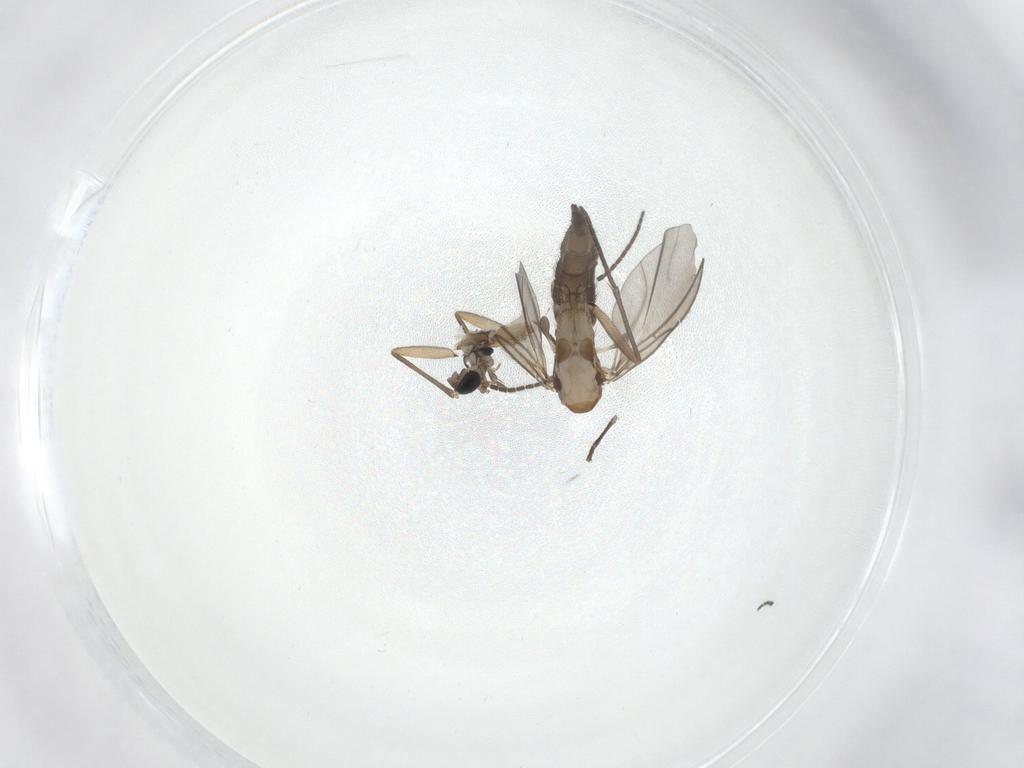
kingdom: Animalia
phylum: Arthropoda
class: Insecta
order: Diptera
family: Sciaridae
